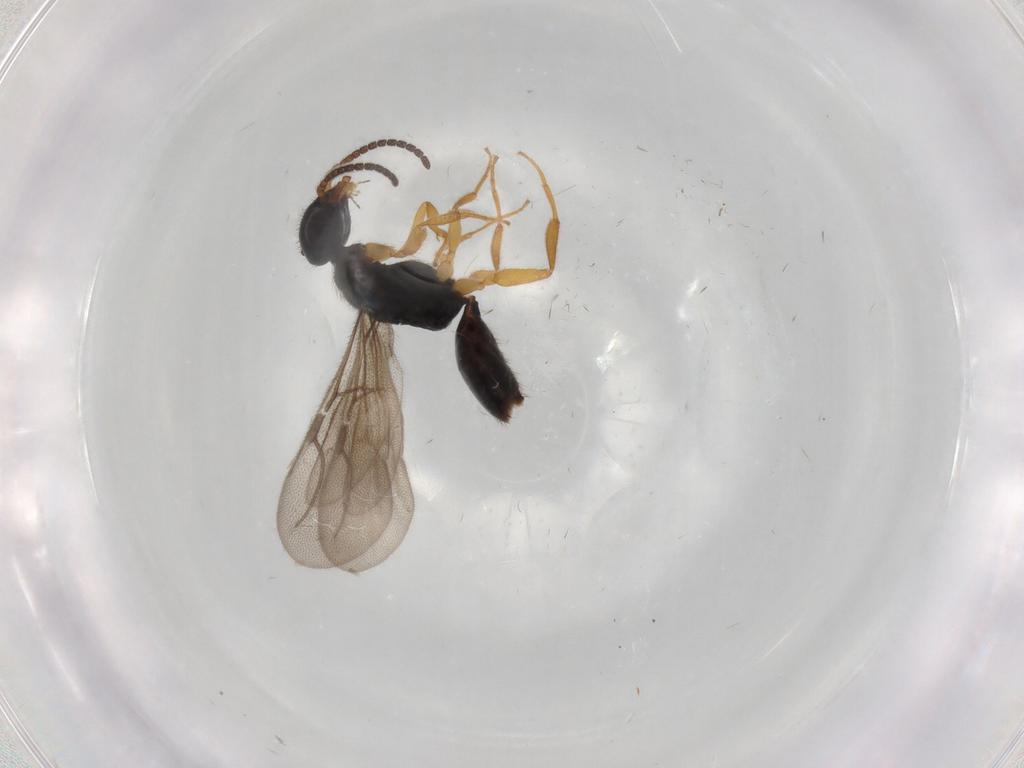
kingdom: Animalia
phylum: Arthropoda
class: Insecta
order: Hymenoptera
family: Bethylidae
